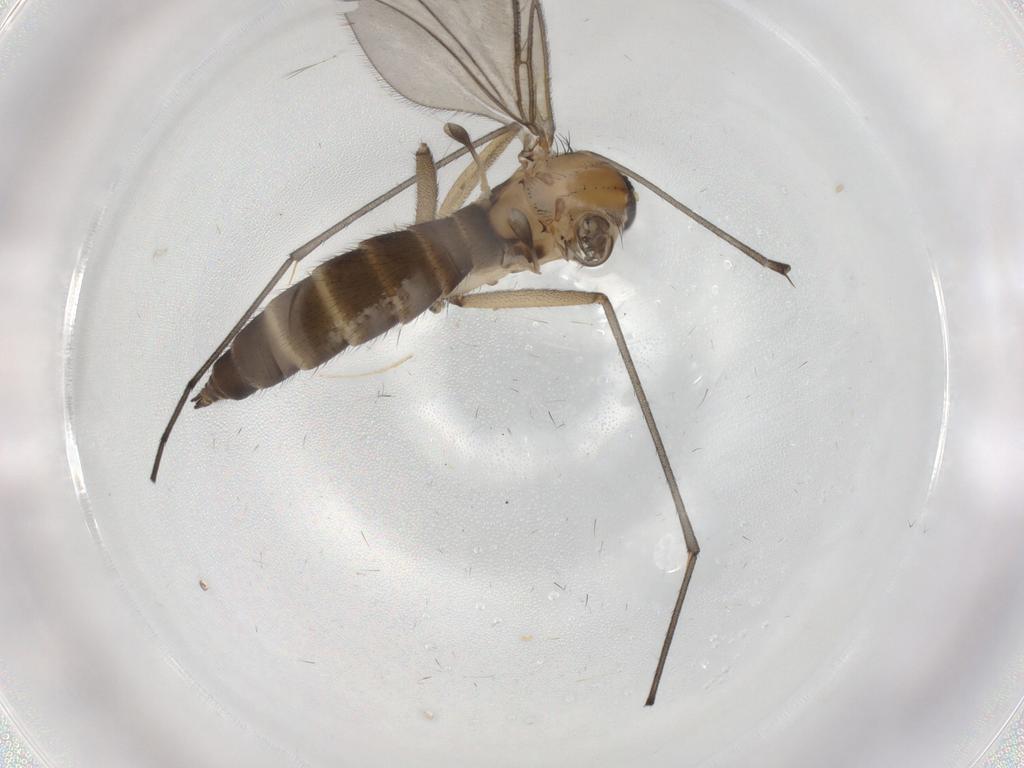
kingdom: Animalia
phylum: Arthropoda
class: Insecta
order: Diptera
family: Sciaridae
